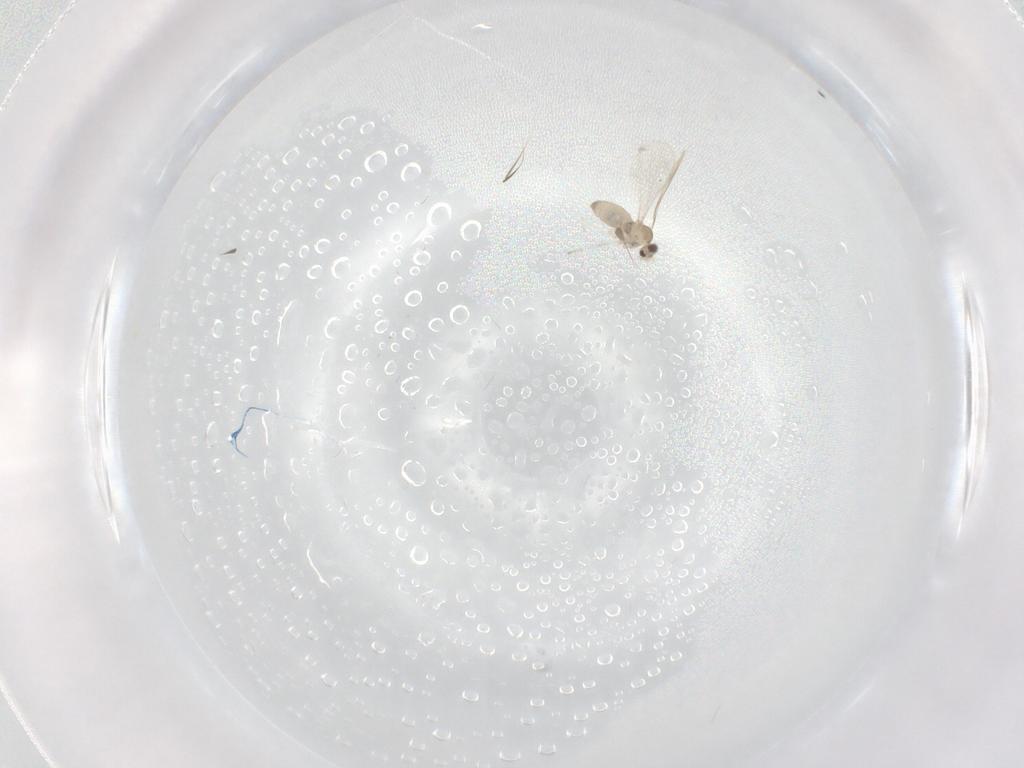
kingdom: Animalia
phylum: Arthropoda
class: Insecta
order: Diptera
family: Cecidomyiidae
